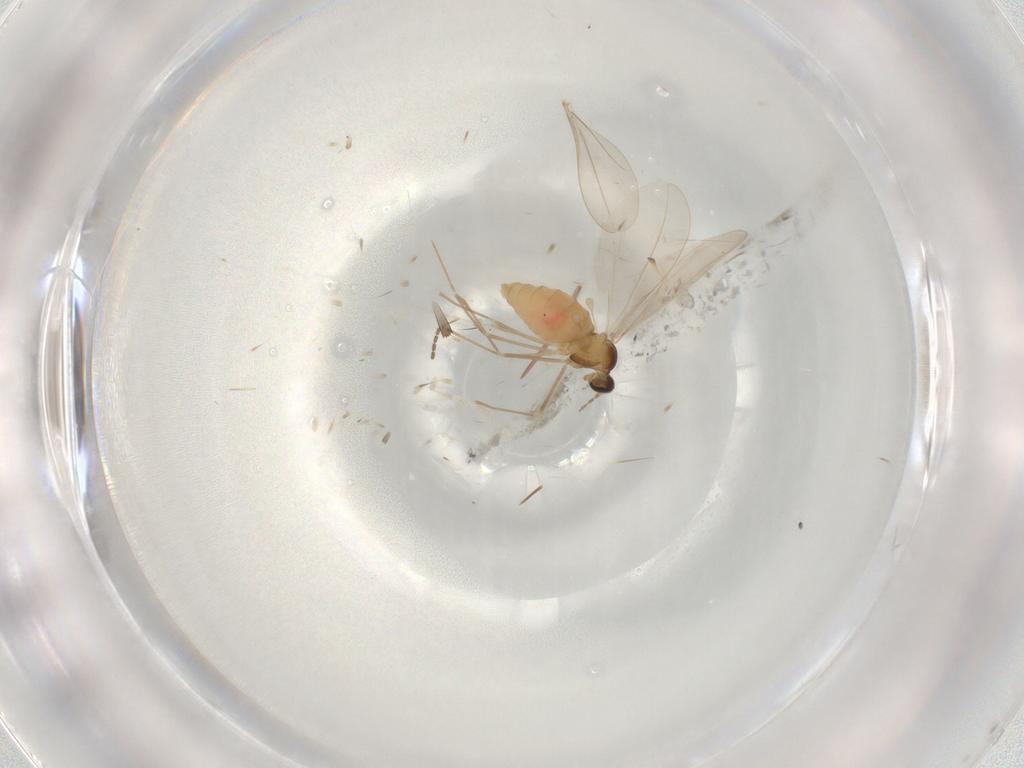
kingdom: Animalia
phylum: Arthropoda
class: Insecta
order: Diptera
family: Cecidomyiidae
